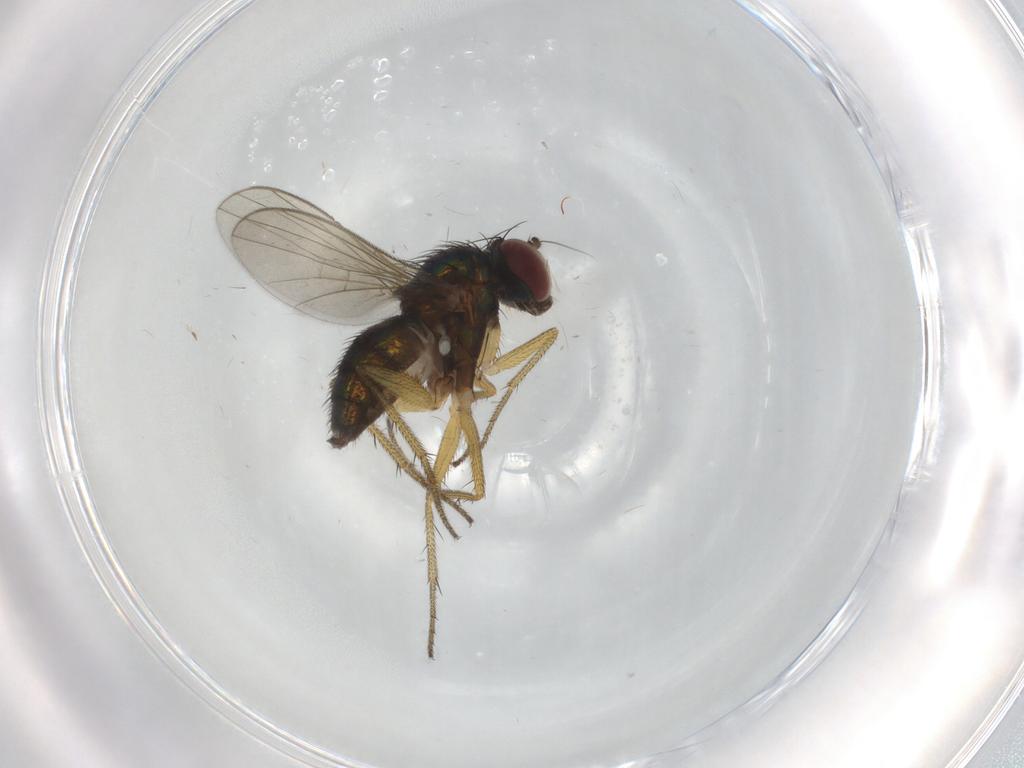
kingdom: Animalia
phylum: Arthropoda
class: Insecta
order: Diptera
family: Dolichopodidae
